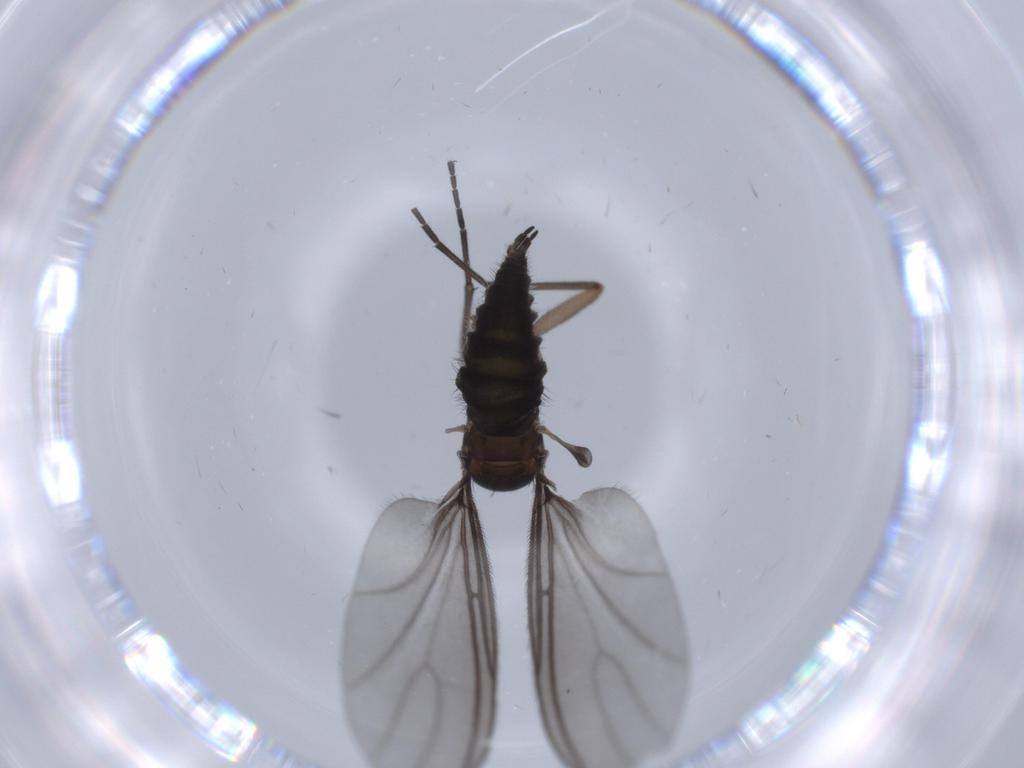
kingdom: Animalia
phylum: Arthropoda
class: Insecta
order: Diptera
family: Sciaridae
